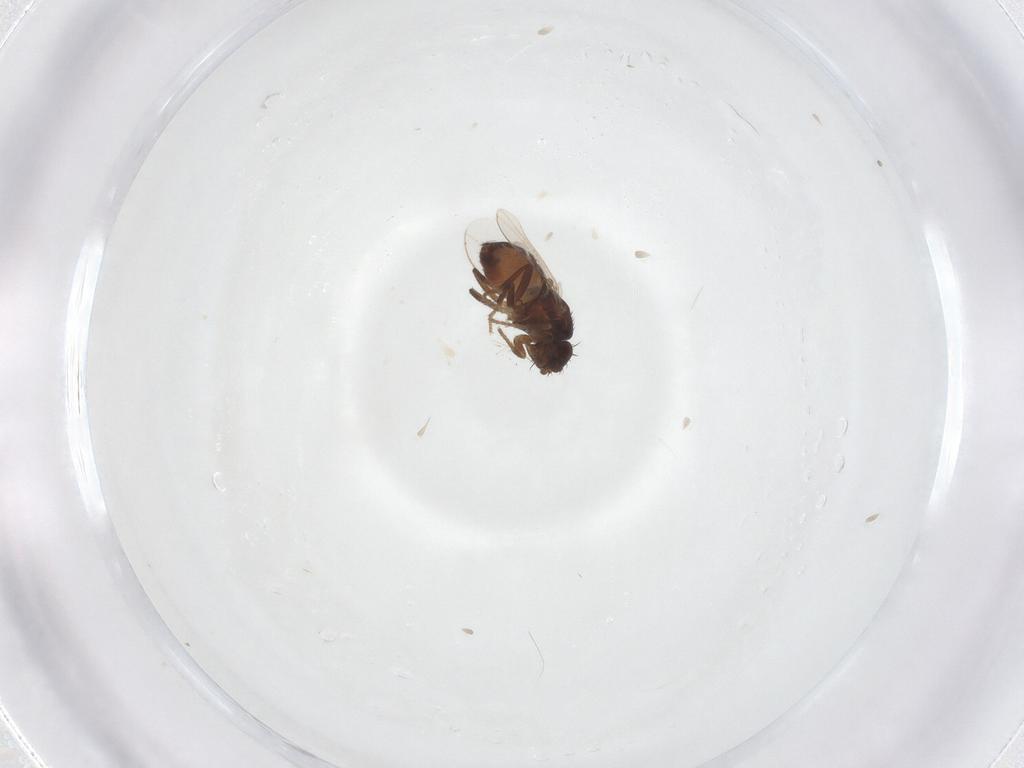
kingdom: Animalia
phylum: Arthropoda
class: Insecta
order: Diptera
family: Sphaeroceridae
